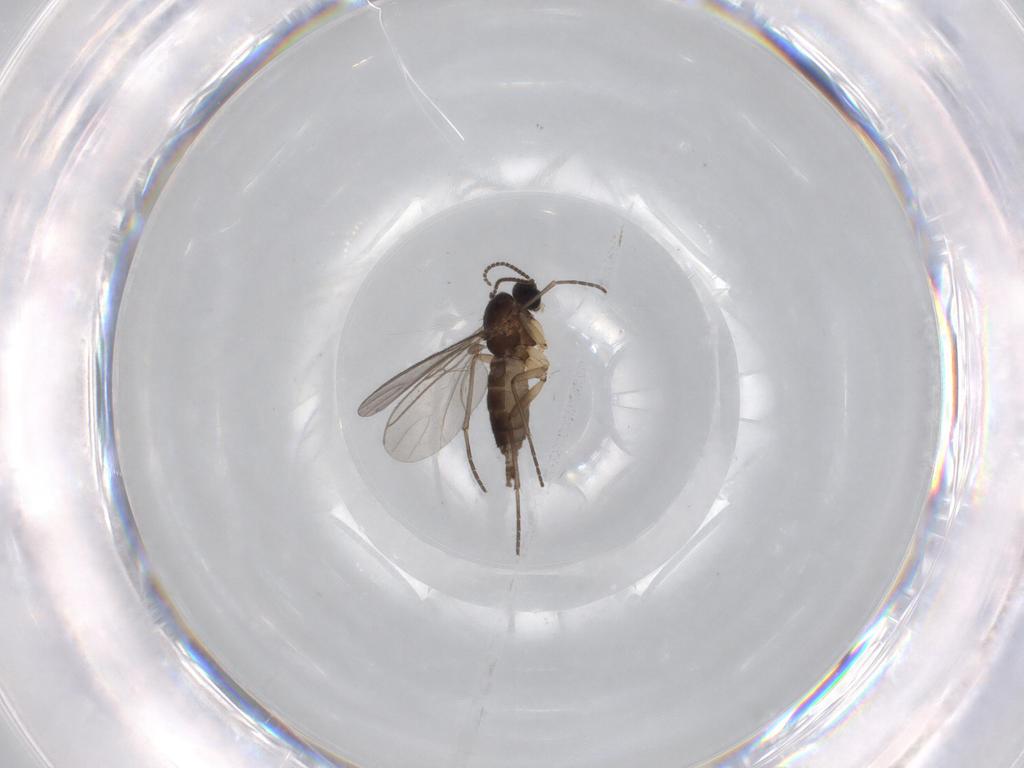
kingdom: Animalia
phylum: Arthropoda
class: Insecta
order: Diptera
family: Sciaridae
